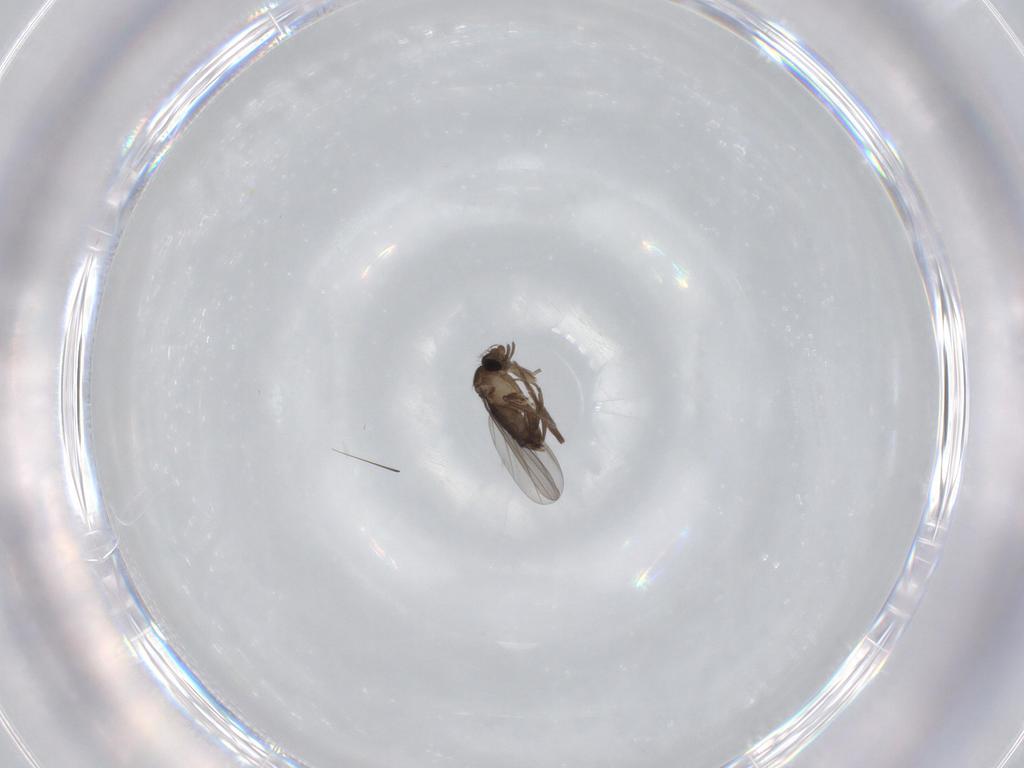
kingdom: Animalia
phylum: Arthropoda
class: Insecta
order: Diptera
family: Phoridae
